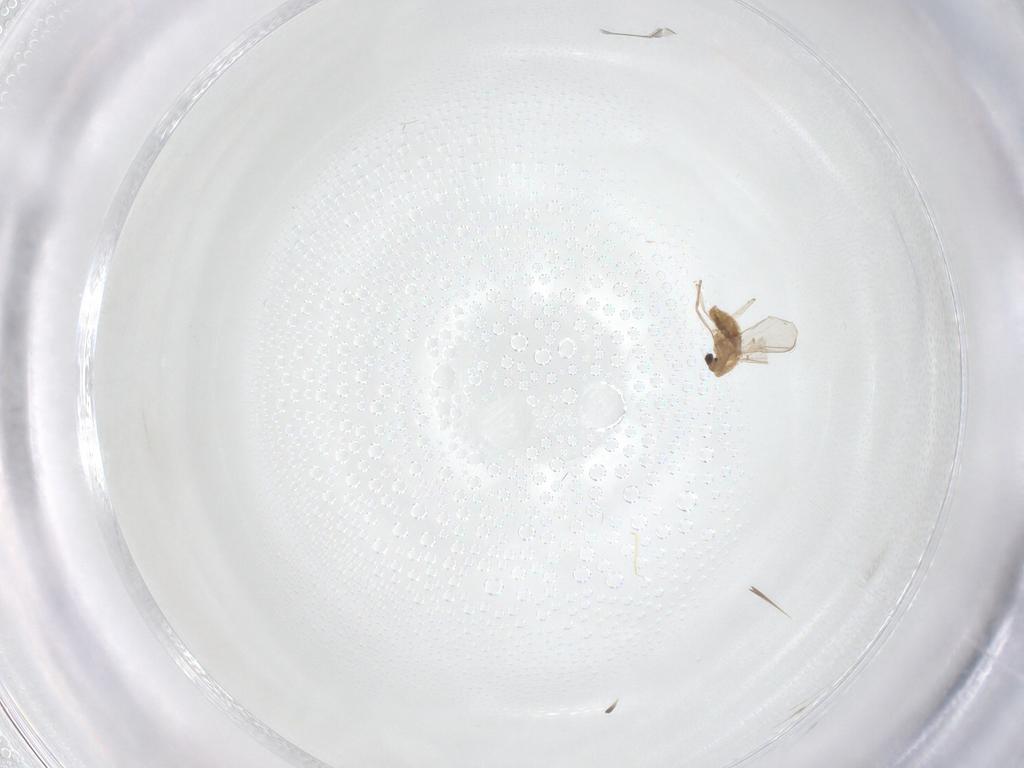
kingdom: Animalia
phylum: Arthropoda
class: Insecta
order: Diptera
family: Chironomidae
